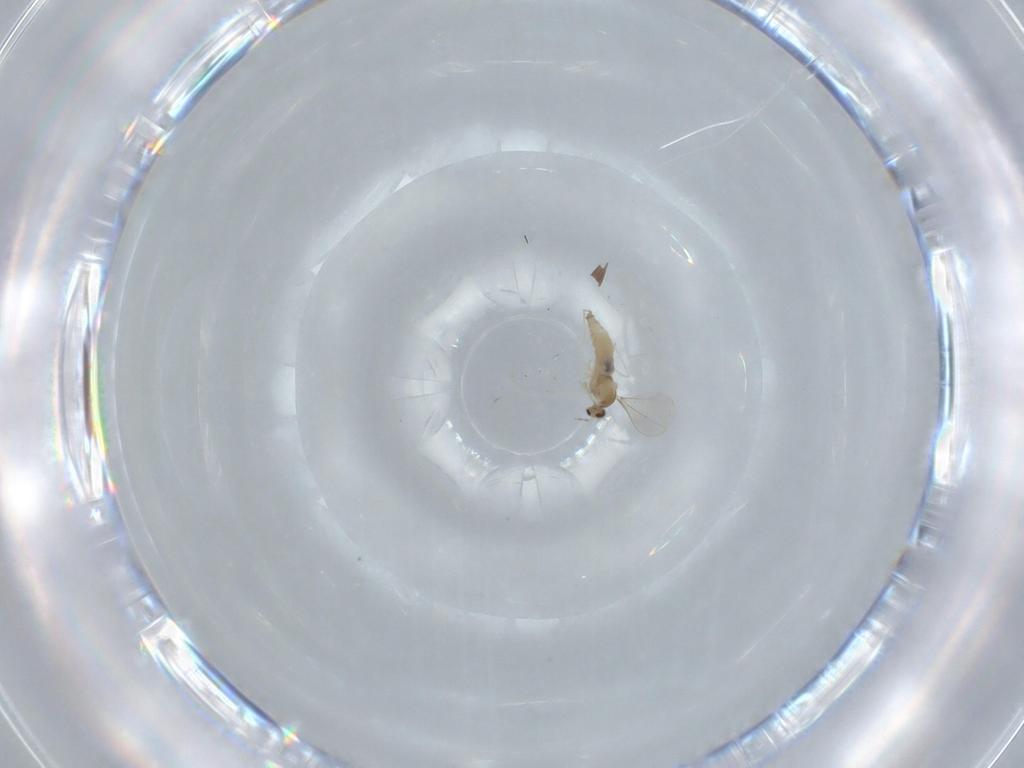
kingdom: Animalia
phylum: Arthropoda
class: Insecta
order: Diptera
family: Cecidomyiidae
